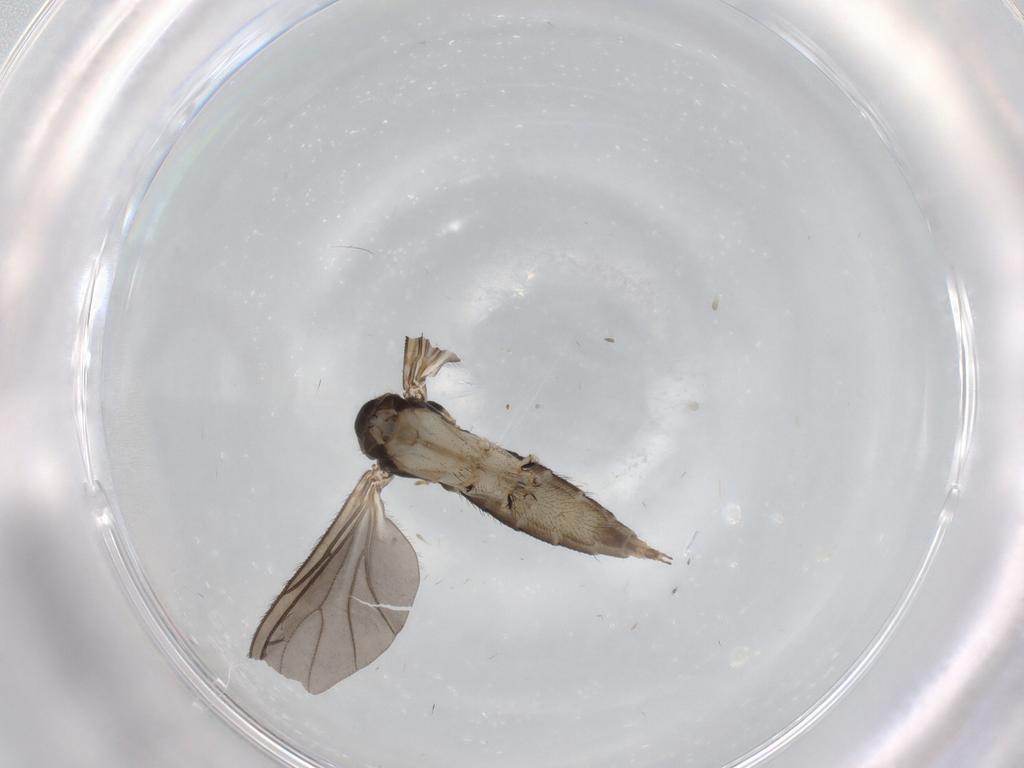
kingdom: Animalia
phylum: Arthropoda
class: Insecta
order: Diptera
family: Sciaridae
